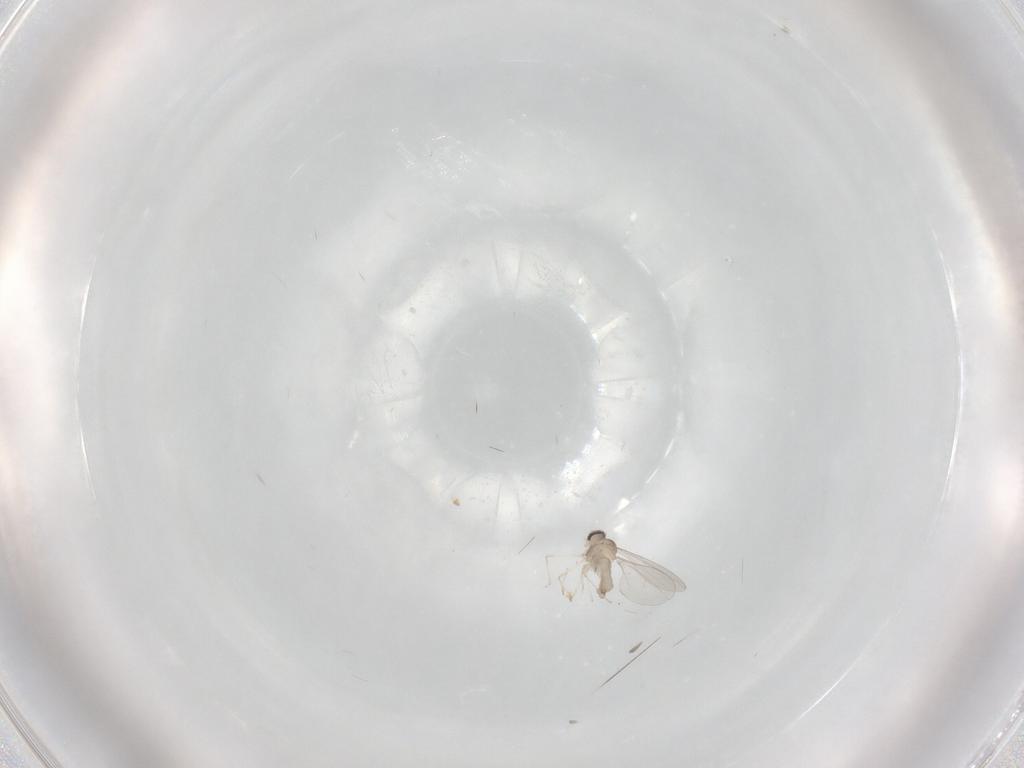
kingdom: Animalia
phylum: Arthropoda
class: Insecta
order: Diptera
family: Cecidomyiidae
